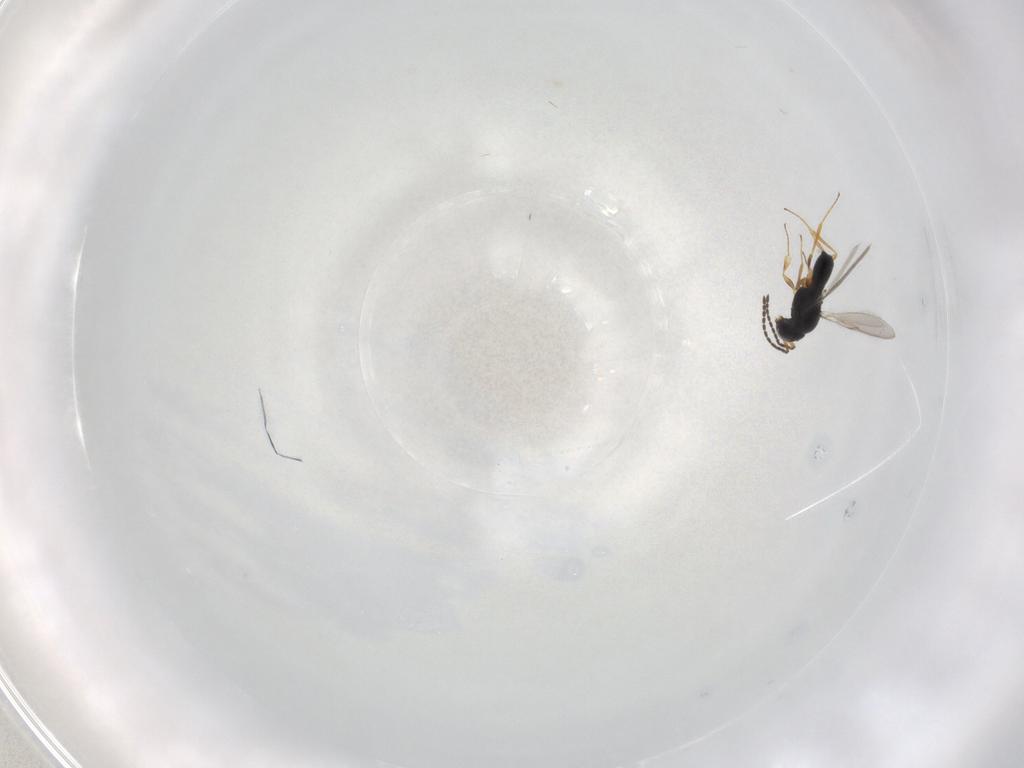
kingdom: Animalia
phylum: Arthropoda
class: Insecta
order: Hymenoptera
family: Scelionidae
